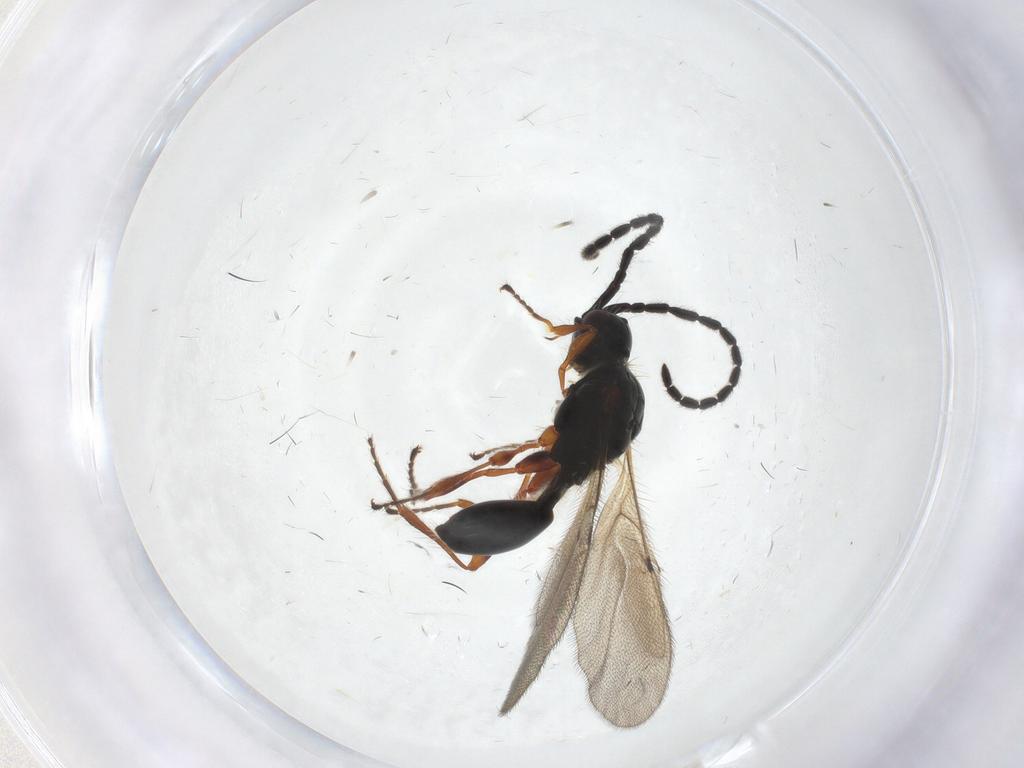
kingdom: Animalia
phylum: Arthropoda
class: Insecta
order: Hymenoptera
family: Diapriidae
